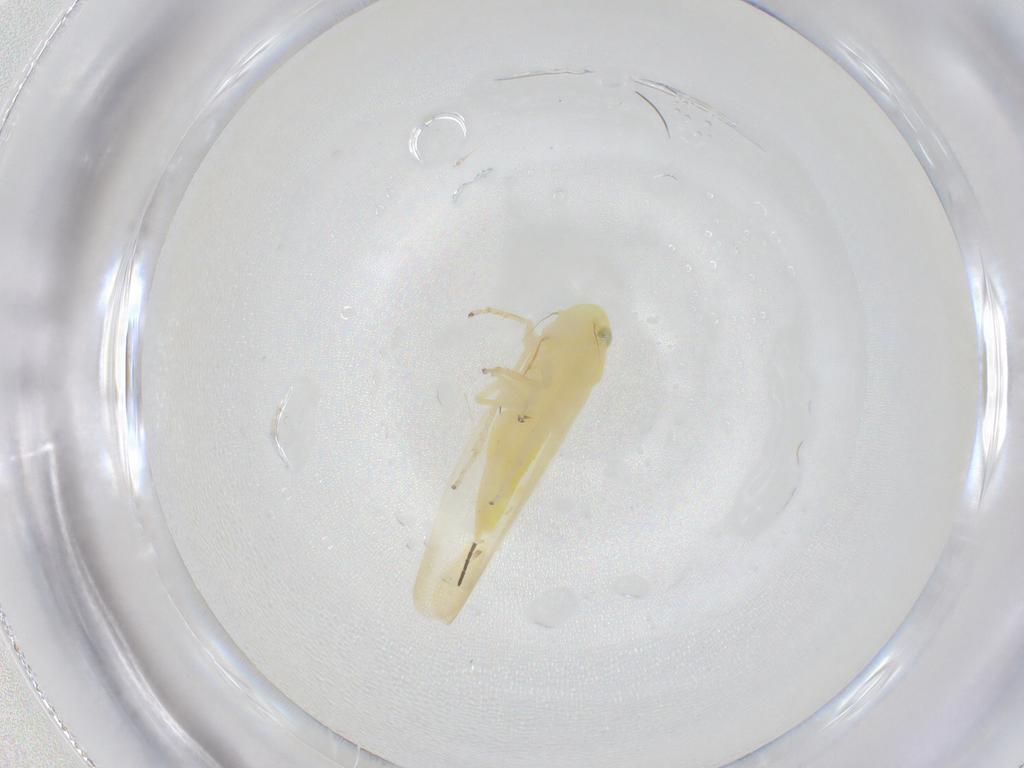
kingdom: Animalia
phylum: Arthropoda
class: Insecta
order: Hemiptera
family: Cicadellidae
